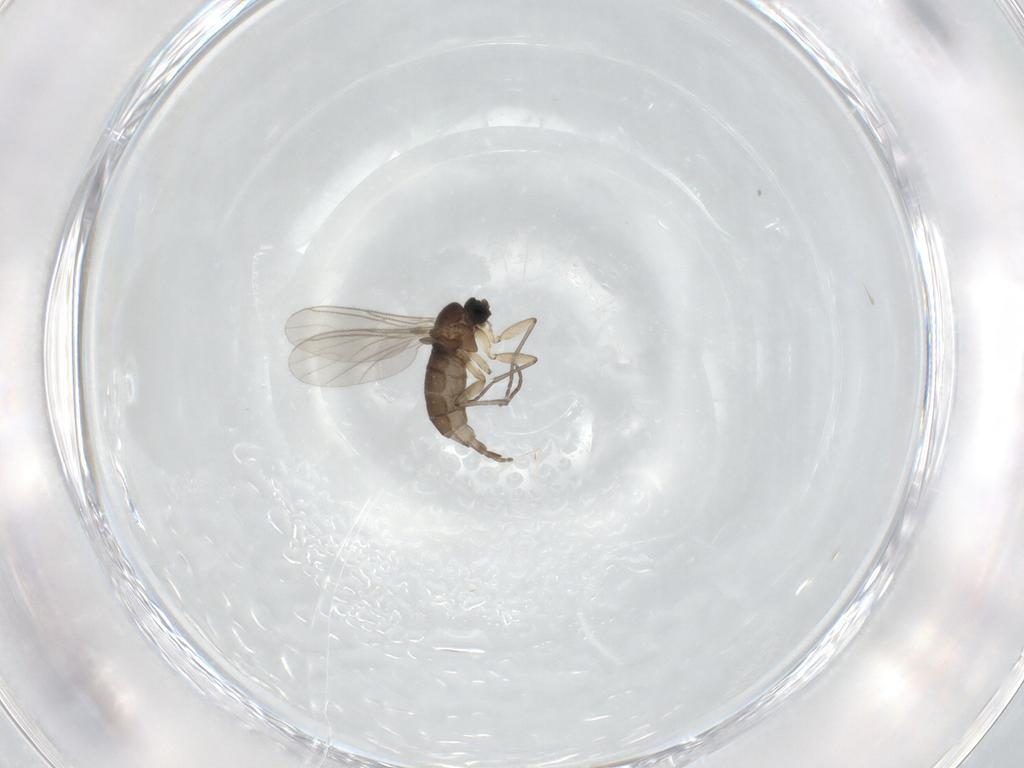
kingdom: Animalia
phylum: Arthropoda
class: Insecta
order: Diptera
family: Sciaridae
